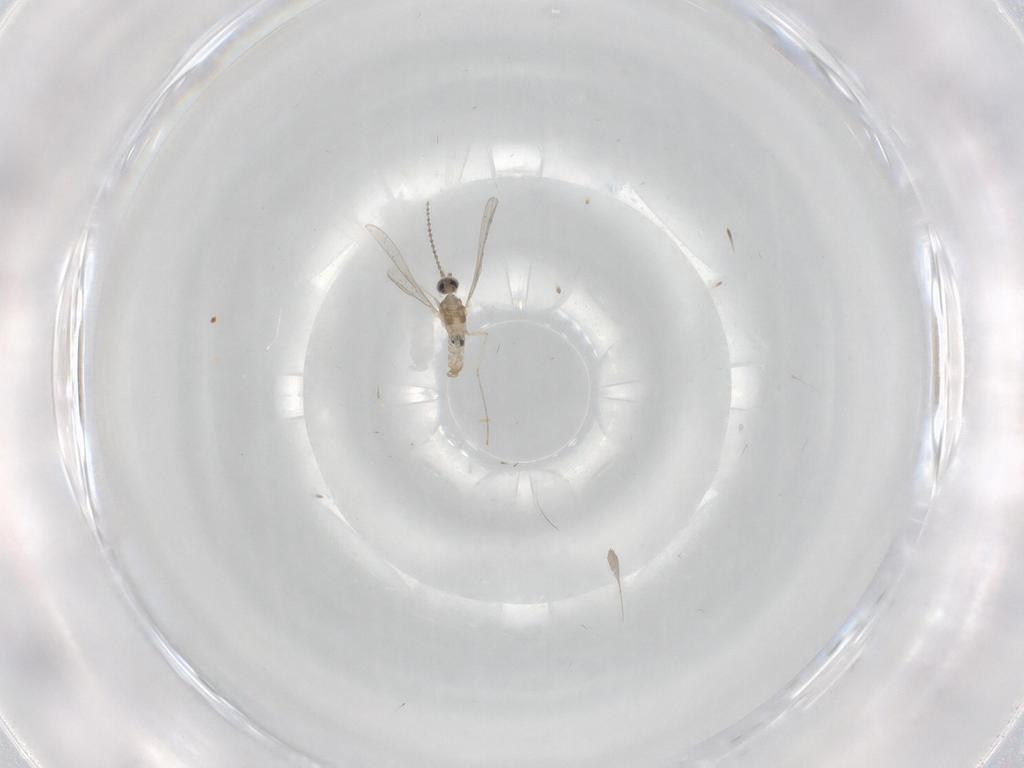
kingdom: Animalia
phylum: Arthropoda
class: Insecta
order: Diptera
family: Cecidomyiidae
